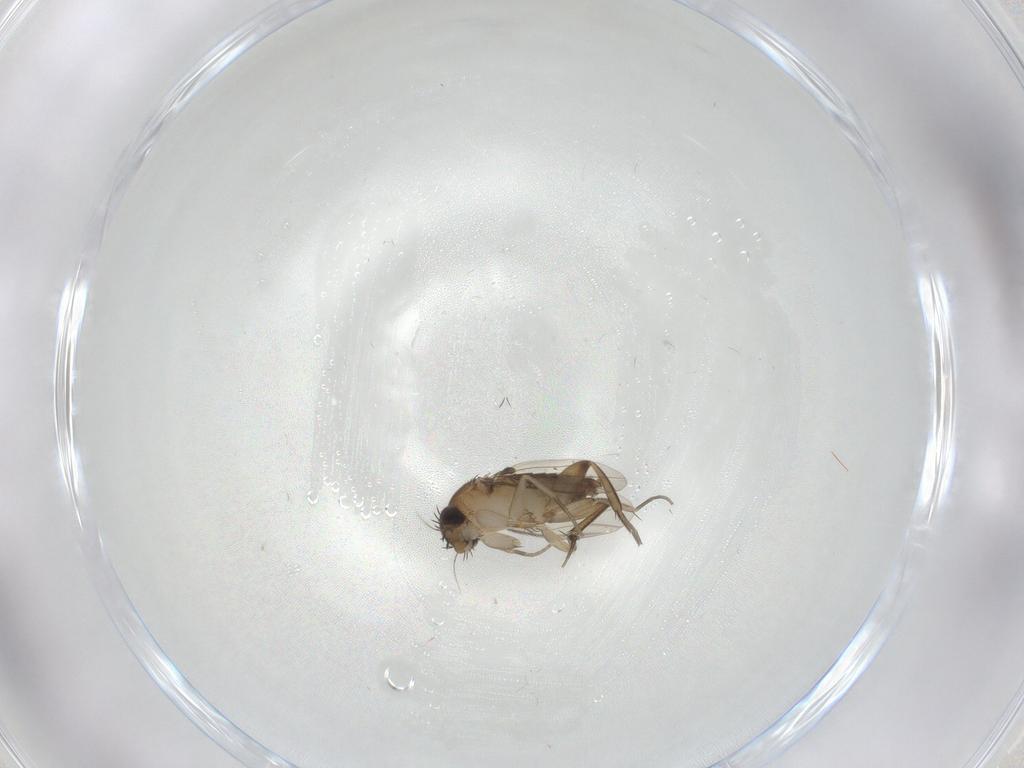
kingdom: Animalia
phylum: Arthropoda
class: Insecta
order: Diptera
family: Phoridae
